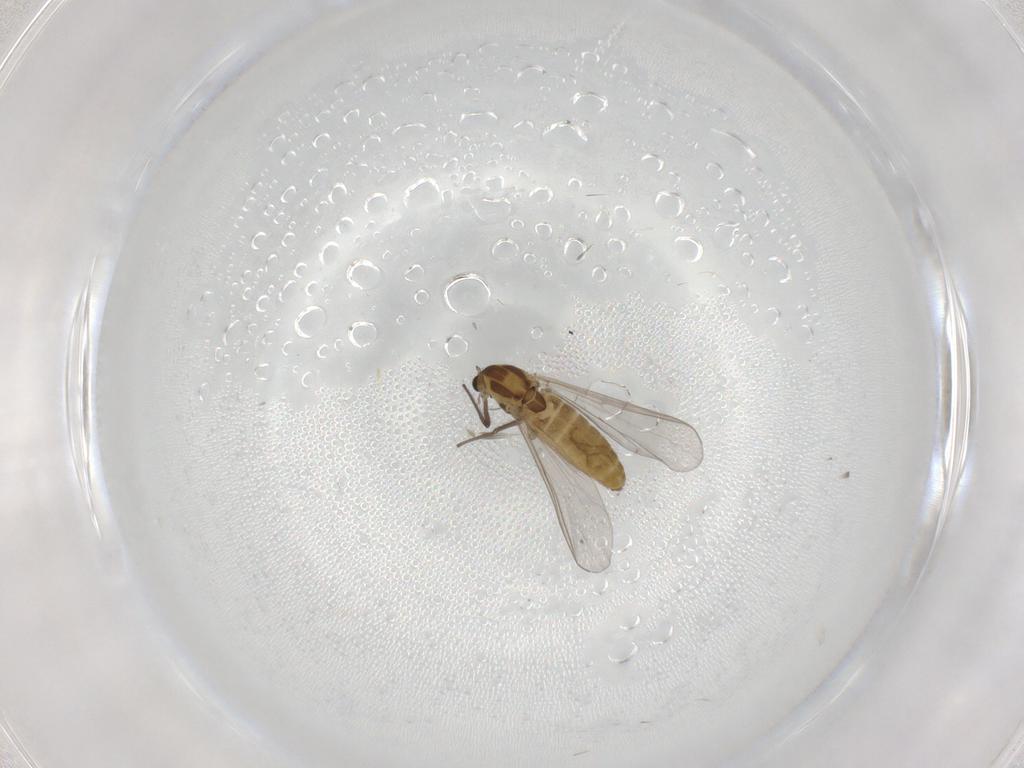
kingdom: Animalia
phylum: Arthropoda
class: Insecta
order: Diptera
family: Chironomidae
